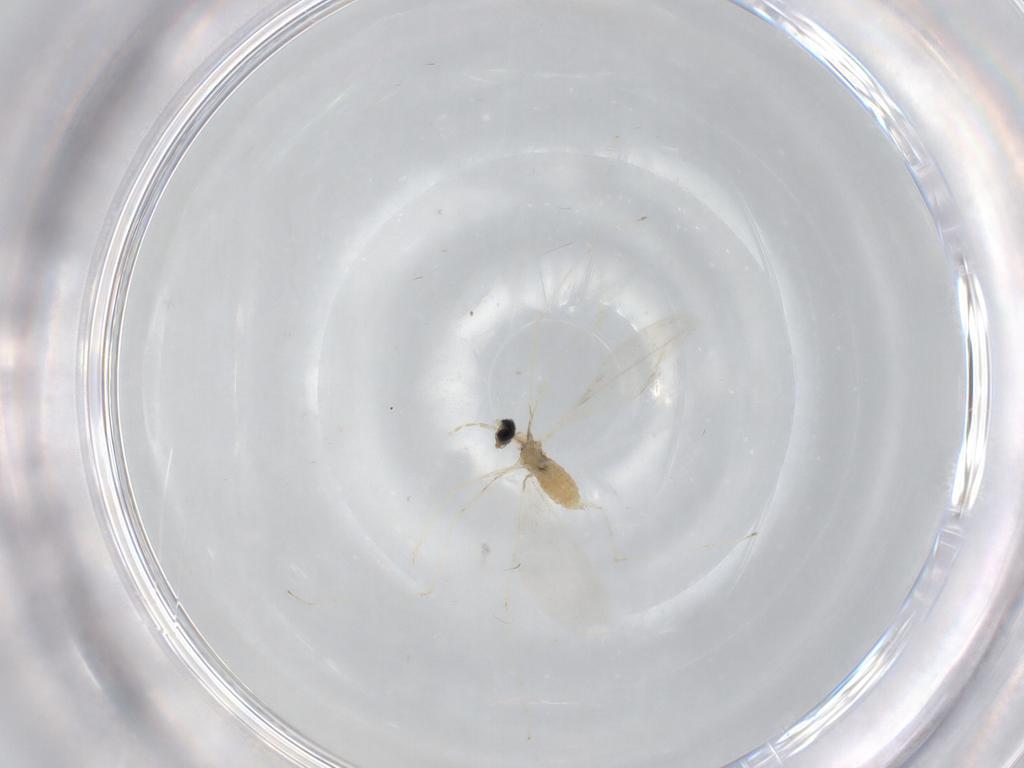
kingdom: Animalia
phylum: Arthropoda
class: Insecta
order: Diptera
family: Cecidomyiidae
